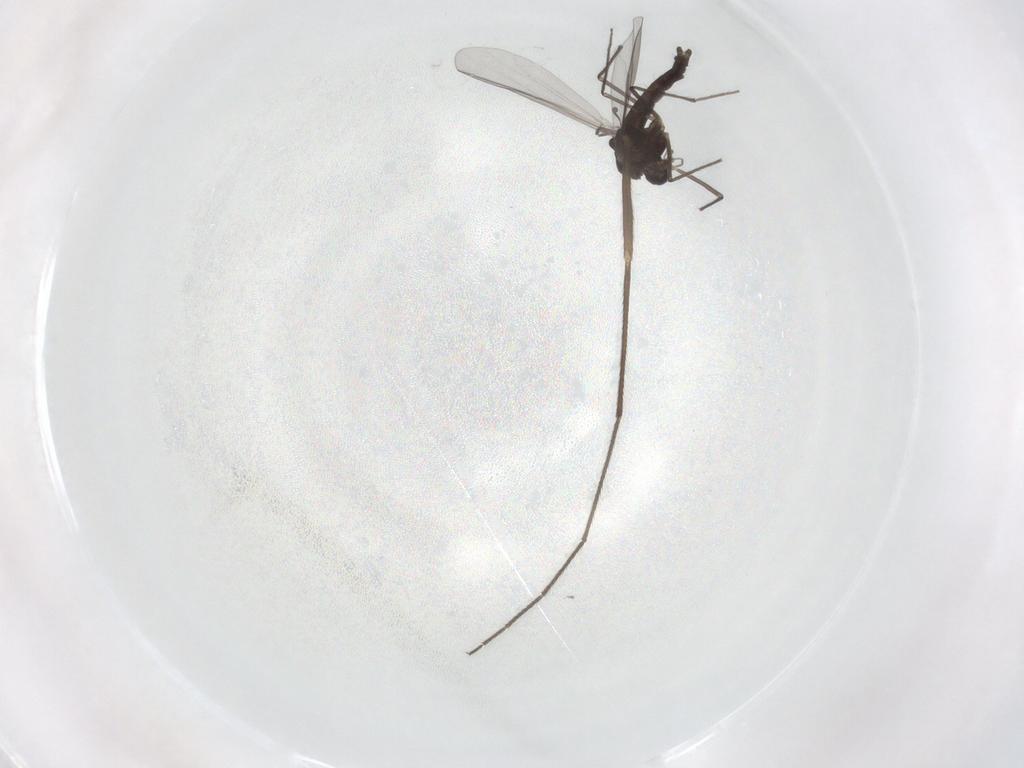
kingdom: Animalia
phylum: Arthropoda
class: Insecta
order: Diptera
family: Chironomidae
